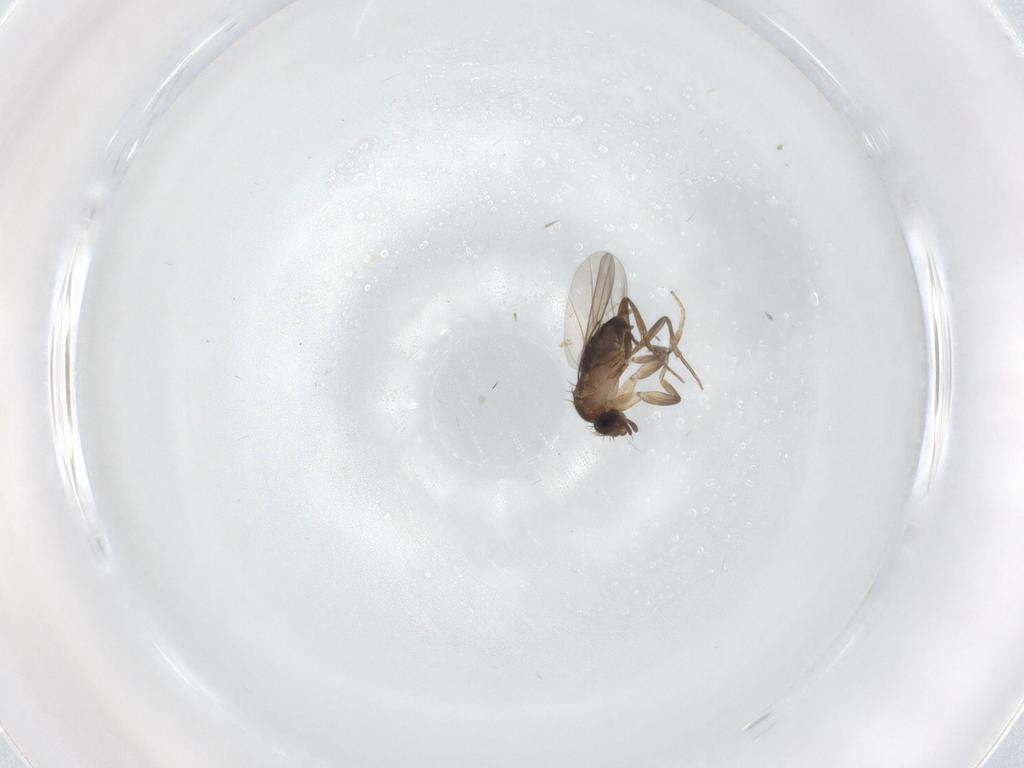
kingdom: Animalia
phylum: Arthropoda
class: Insecta
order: Diptera
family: Phoridae
